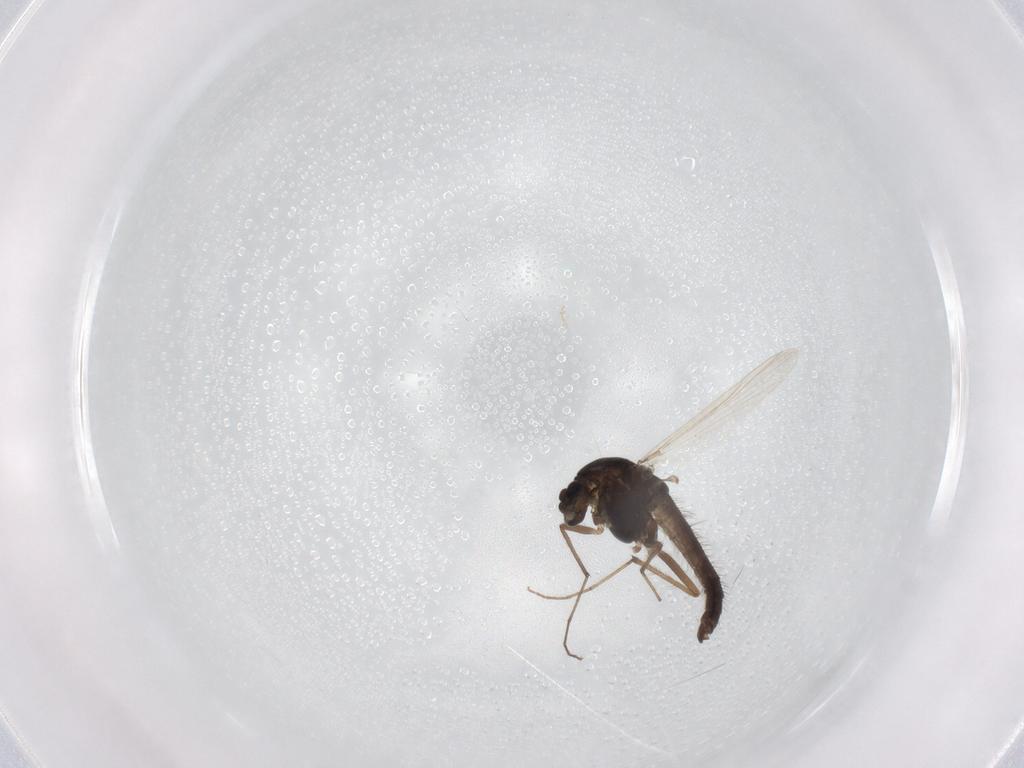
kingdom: Animalia
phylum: Arthropoda
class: Insecta
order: Diptera
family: Chironomidae
